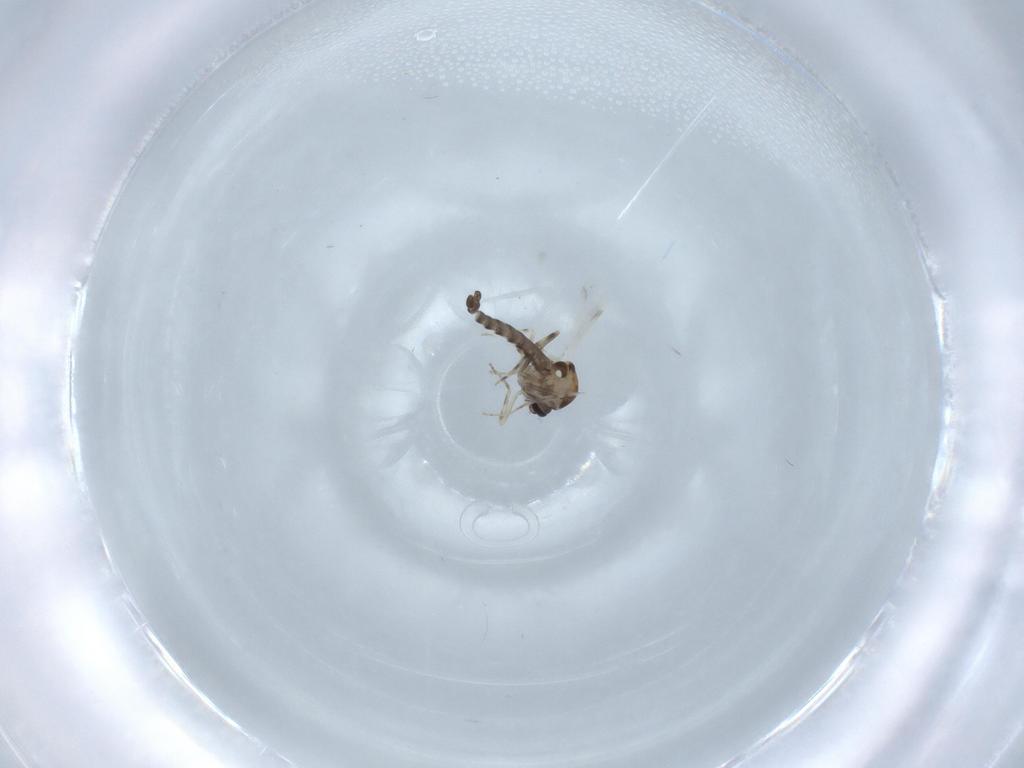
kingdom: Animalia
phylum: Arthropoda
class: Insecta
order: Diptera
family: Ceratopogonidae
